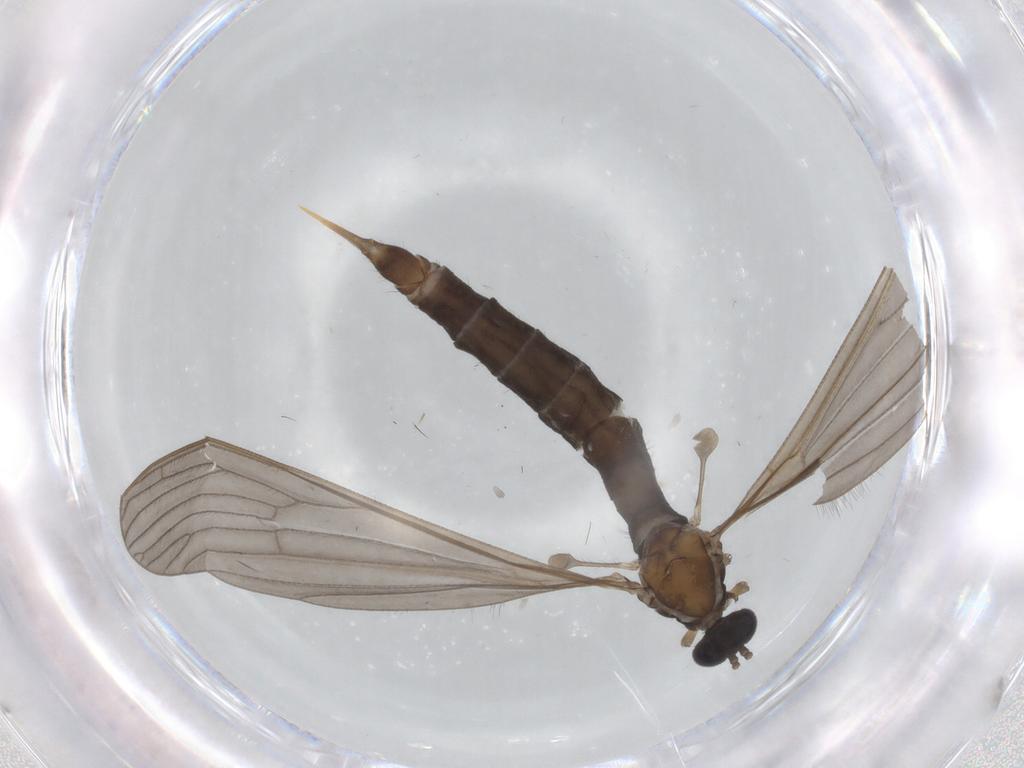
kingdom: Animalia
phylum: Arthropoda
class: Insecta
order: Diptera
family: Limoniidae
